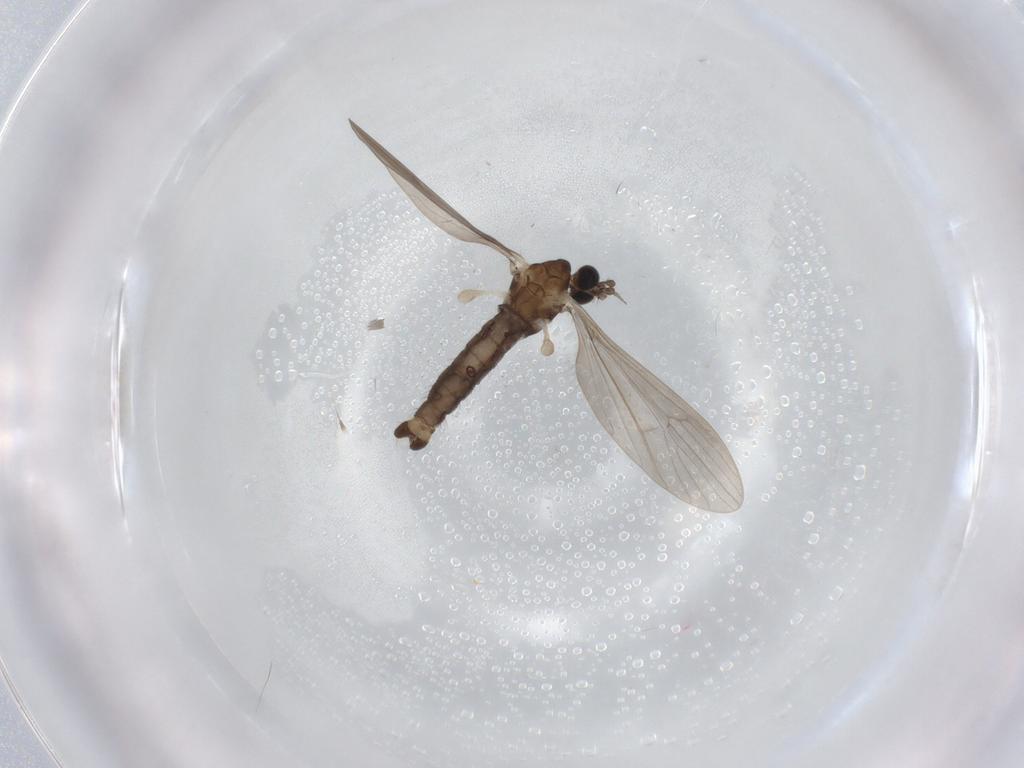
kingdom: Animalia
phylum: Arthropoda
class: Insecta
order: Diptera
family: Limoniidae
